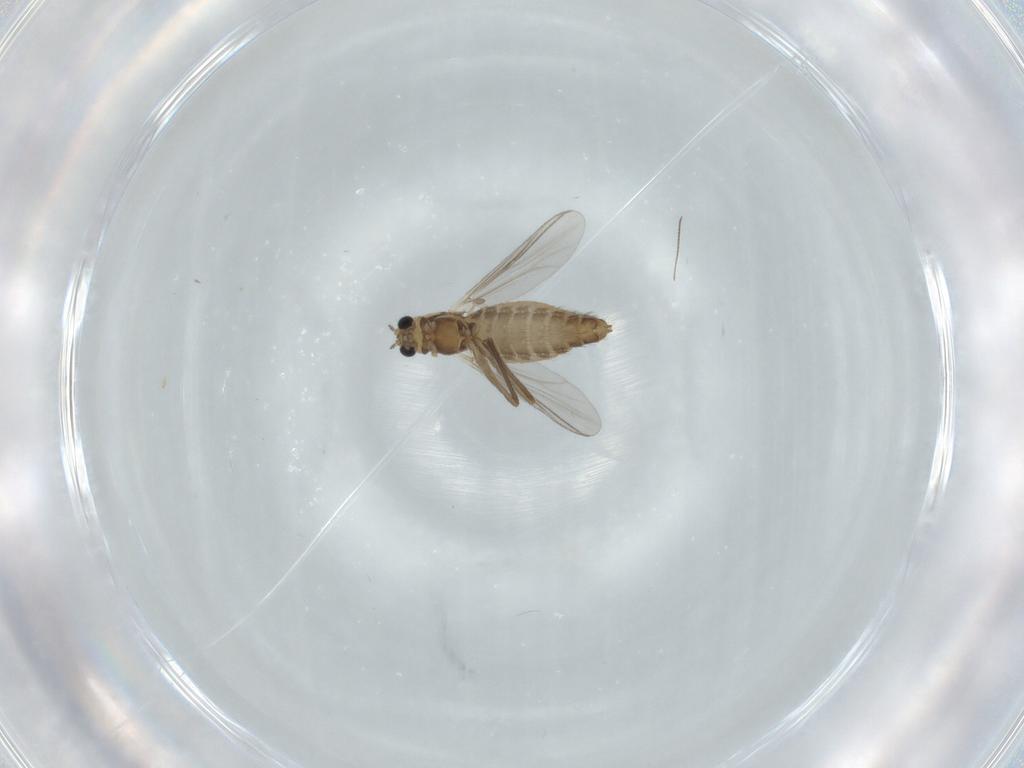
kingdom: Animalia
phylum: Arthropoda
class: Insecta
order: Diptera
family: Chironomidae
